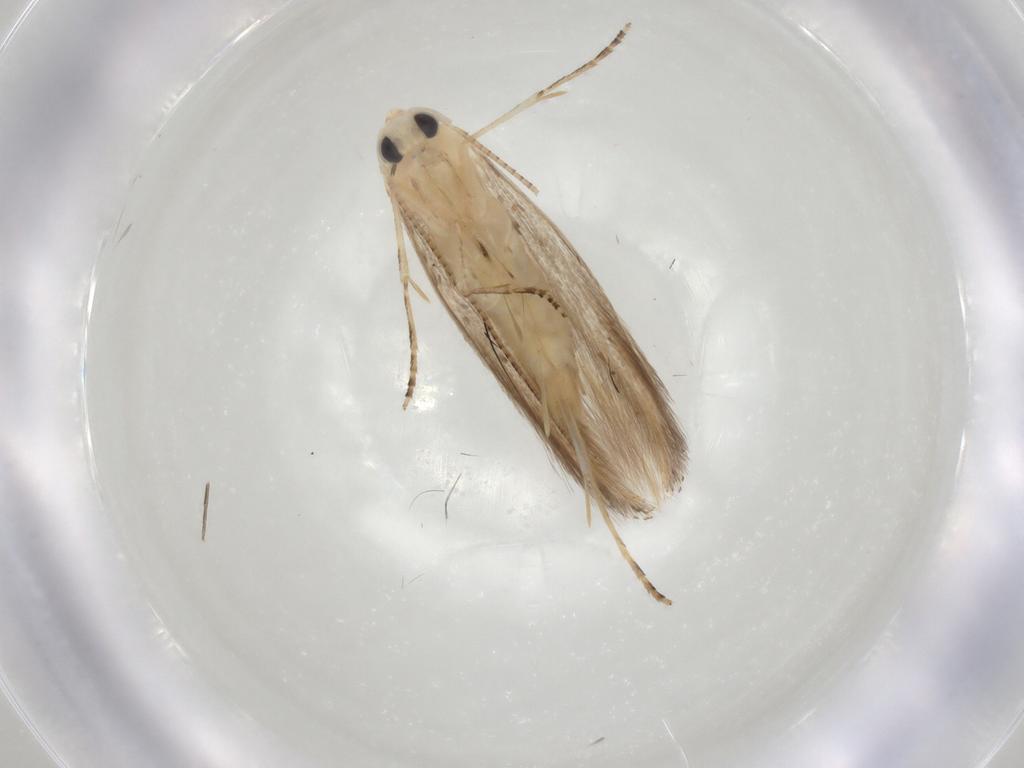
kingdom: Animalia
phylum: Arthropoda
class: Insecta
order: Lepidoptera
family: Bucculatricidae
